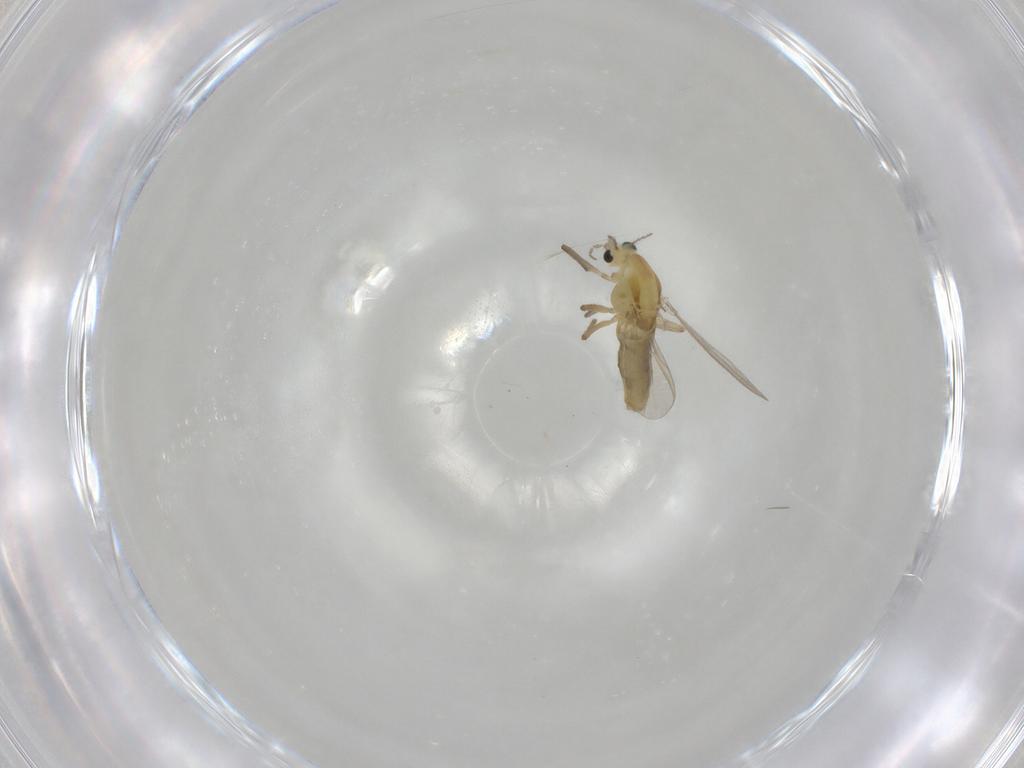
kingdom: Animalia
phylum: Arthropoda
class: Insecta
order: Diptera
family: Chironomidae
